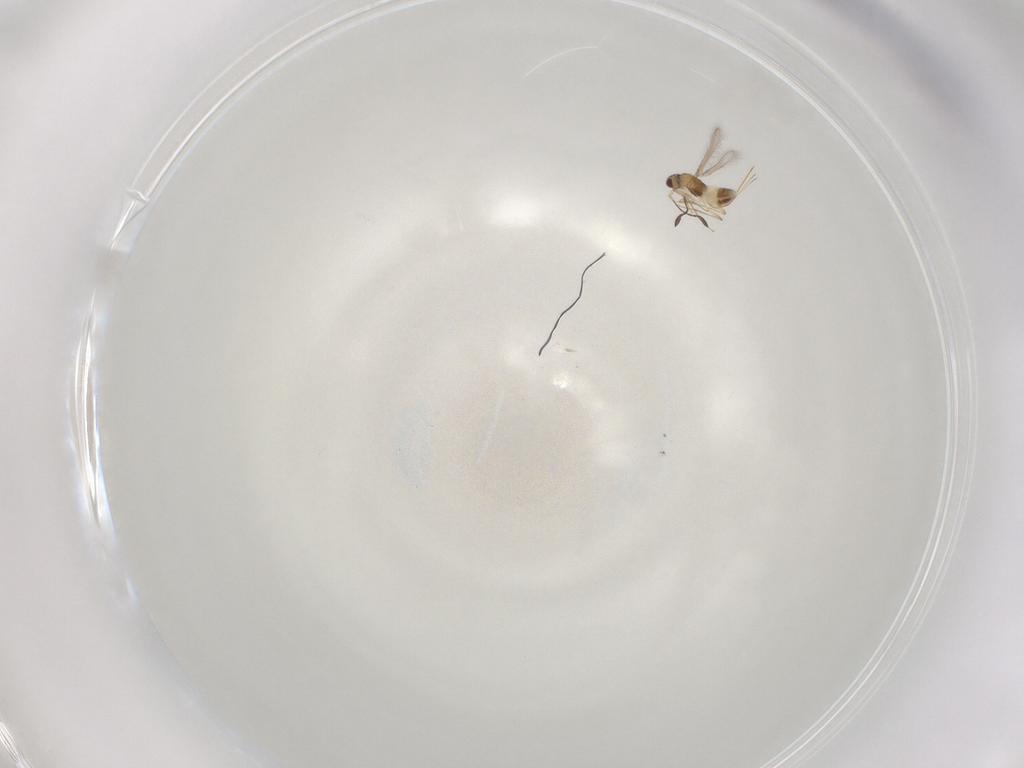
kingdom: Animalia
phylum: Arthropoda
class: Insecta
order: Hymenoptera
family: Mymaridae
